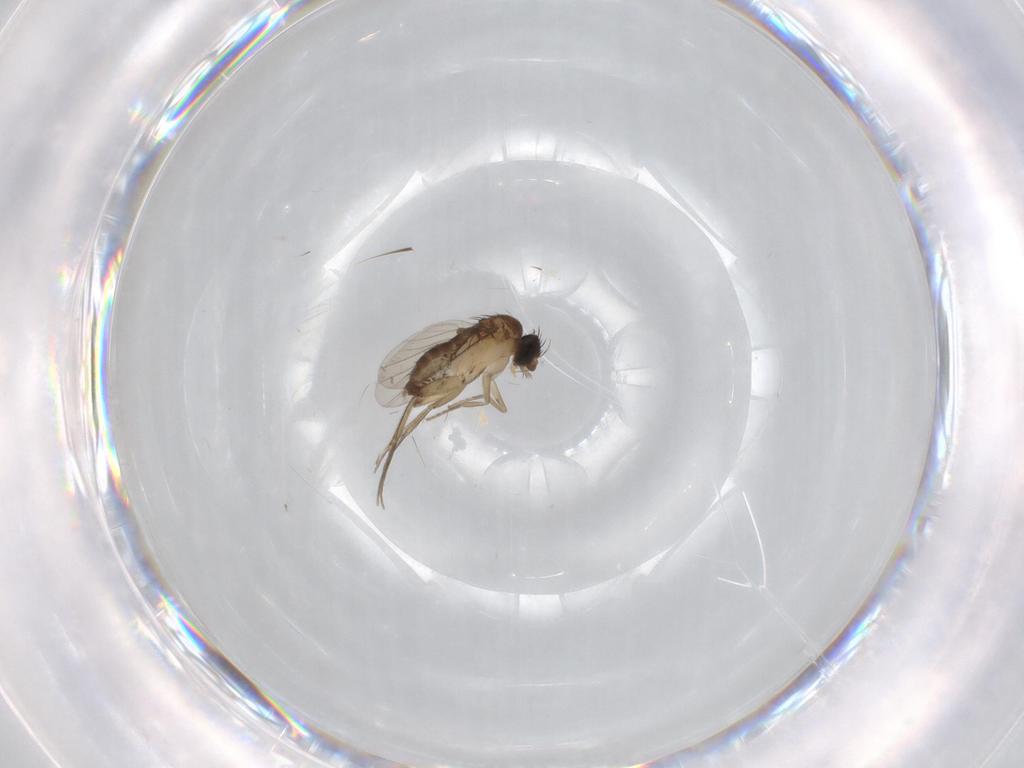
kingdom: Animalia
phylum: Arthropoda
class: Insecta
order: Diptera
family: Phoridae
